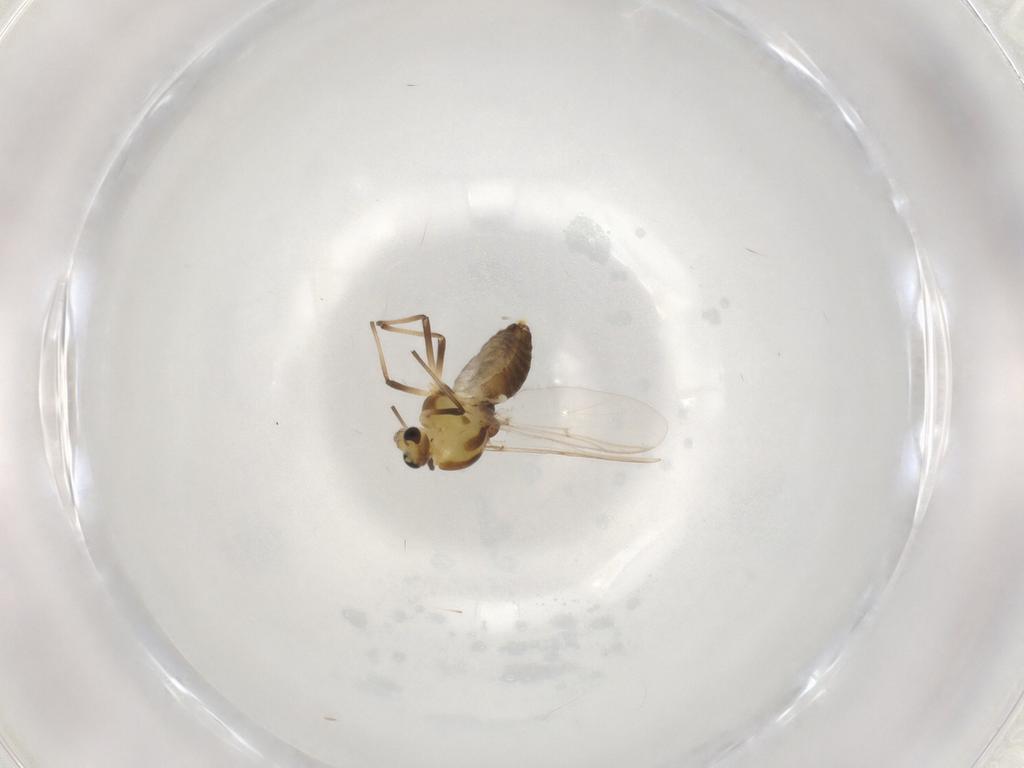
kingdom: Animalia
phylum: Arthropoda
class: Insecta
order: Diptera
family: Chironomidae
